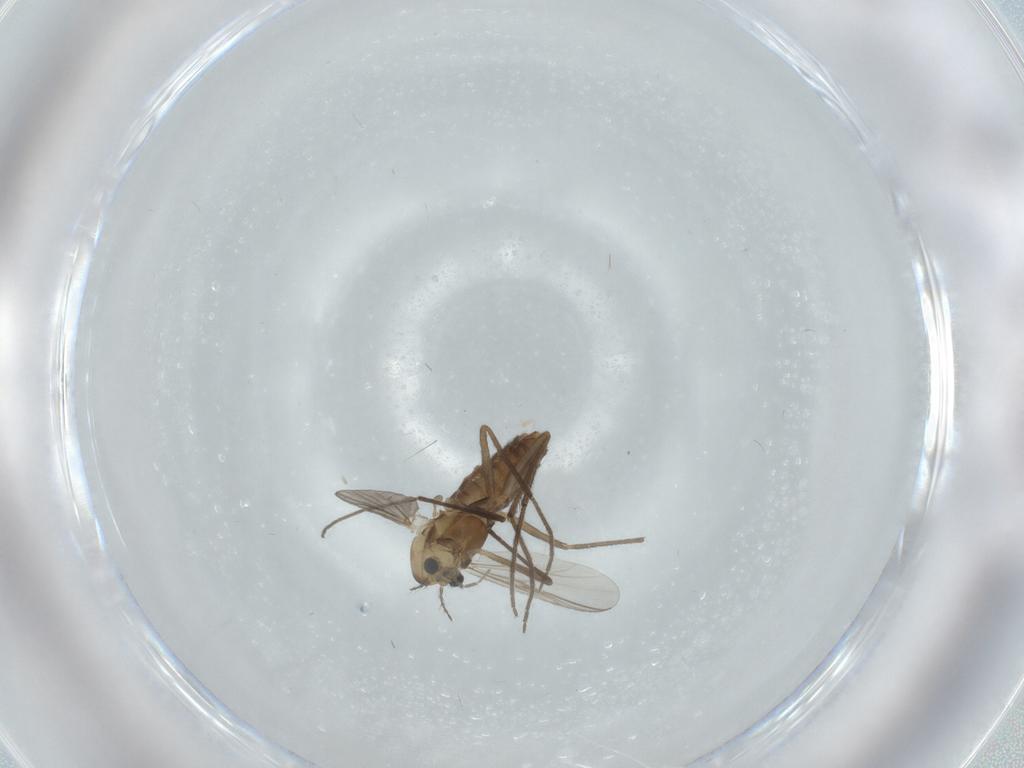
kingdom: Animalia
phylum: Arthropoda
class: Insecta
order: Diptera
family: Chironomidae
